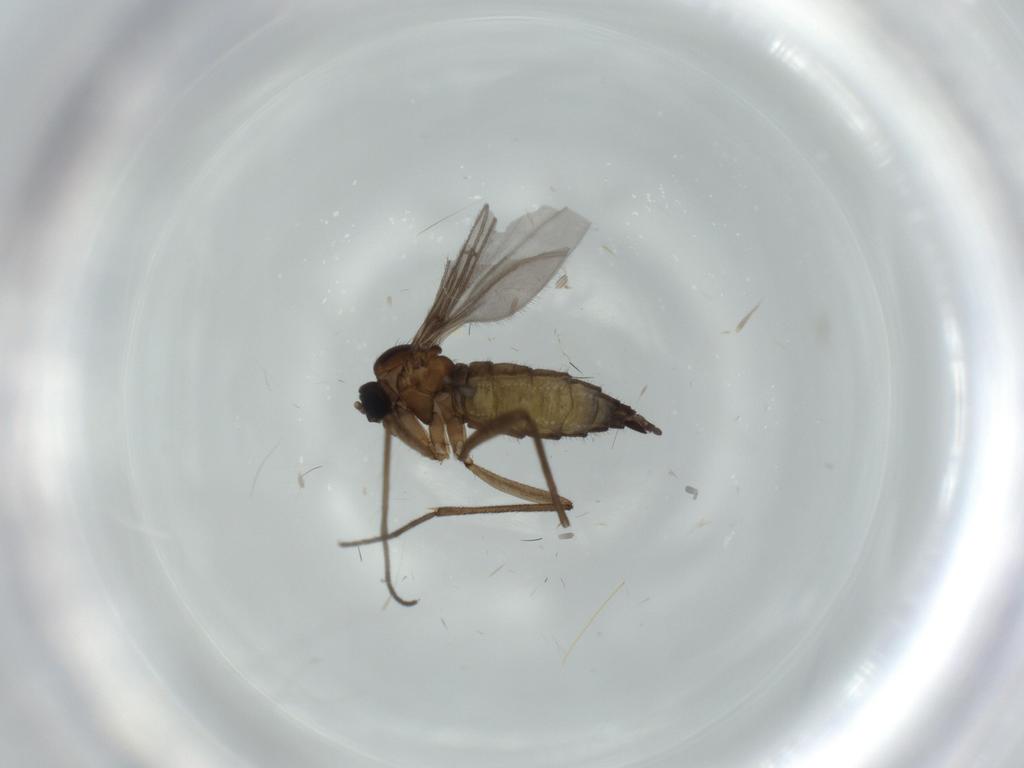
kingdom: Animalia
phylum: Arthropoda
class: Insecta
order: Diptera
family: Sciaridae
